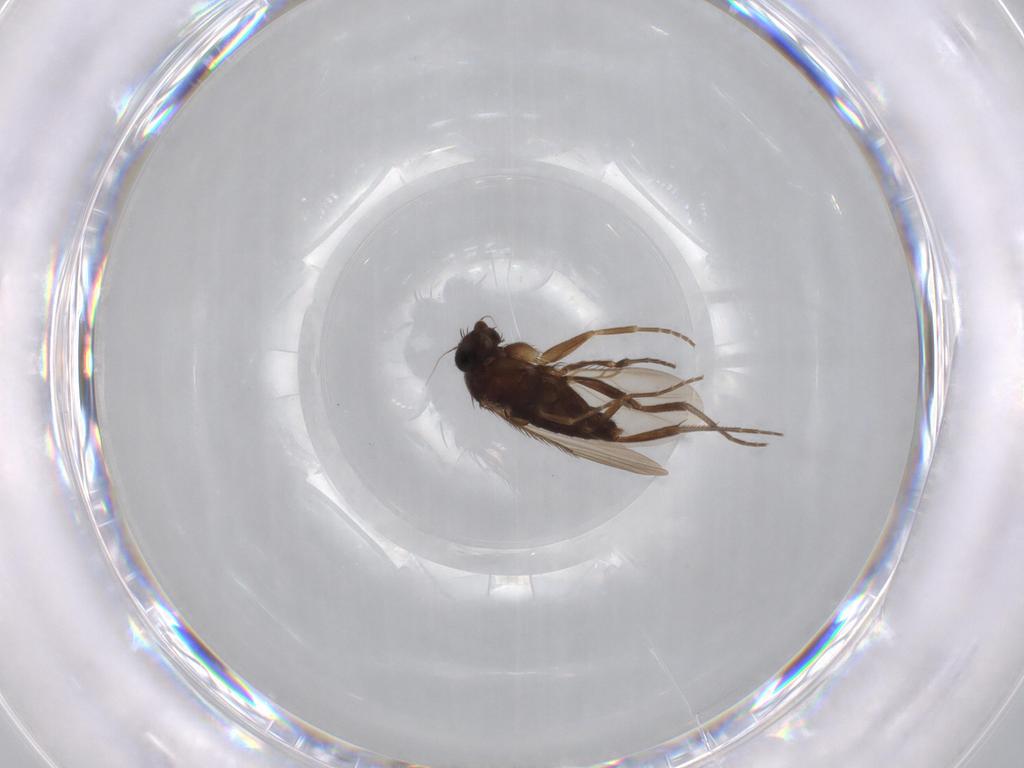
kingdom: Animalia
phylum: Arthropoda
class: Insecta
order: Diptera
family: Phoridae
